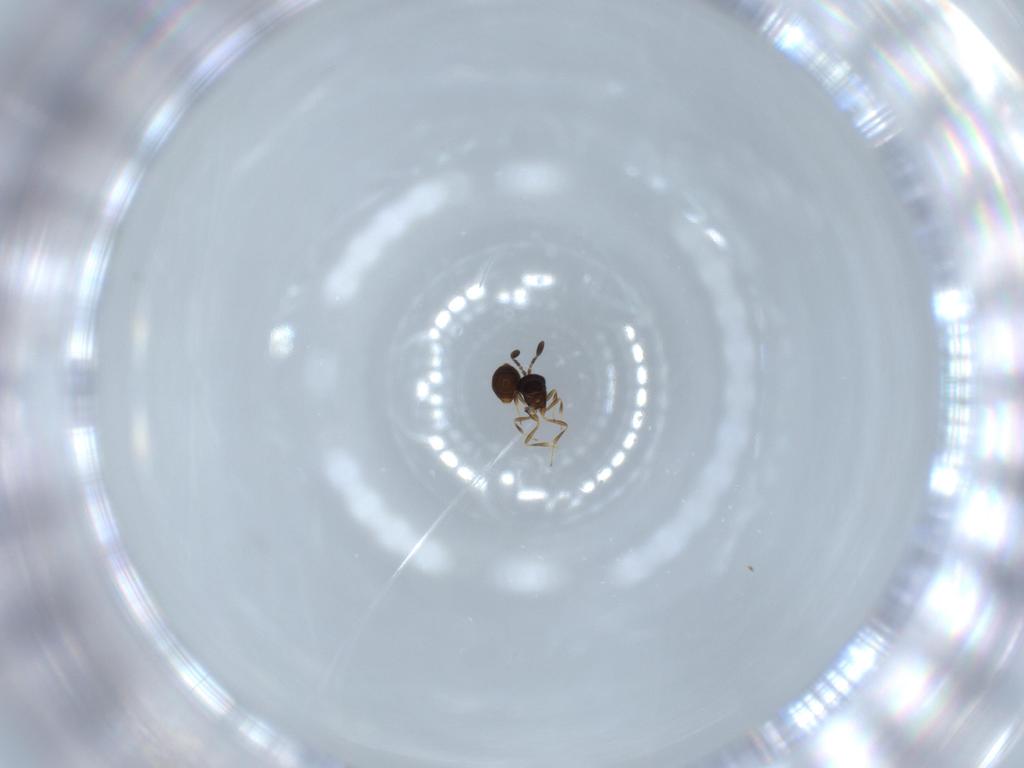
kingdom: Animalia
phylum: Arthropoda
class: Insecta
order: Hymenoptera
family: Scelionidae
